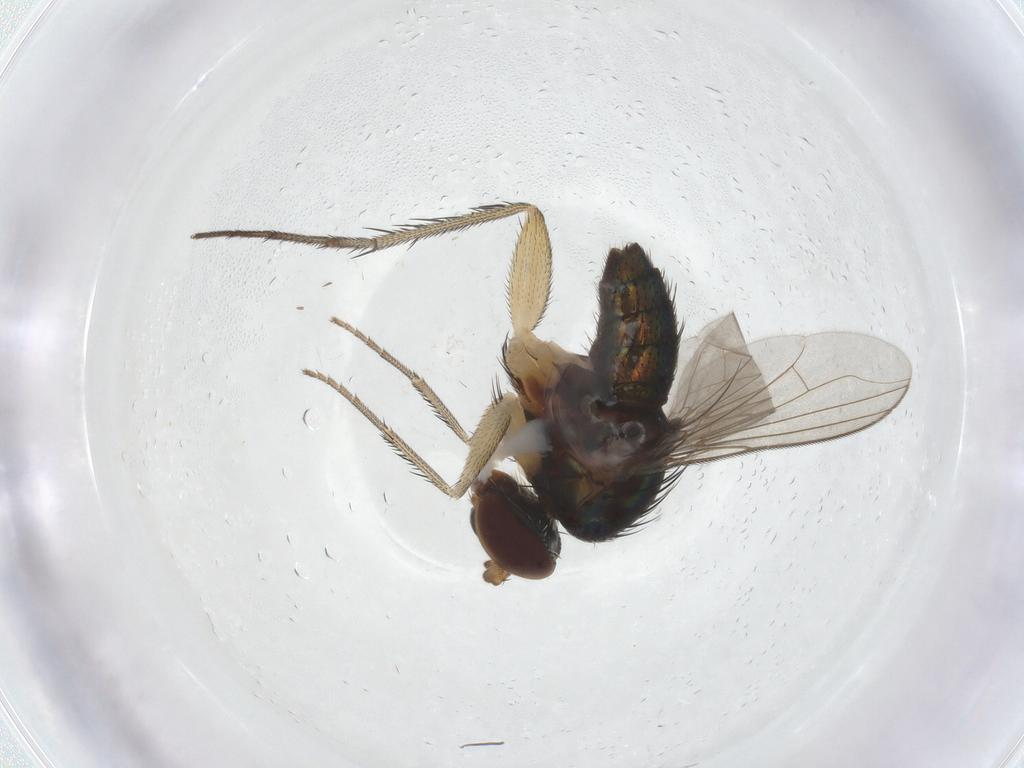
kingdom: Animalia
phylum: Arthropoda
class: Insecta
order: Diptera
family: Dolichopodidae
